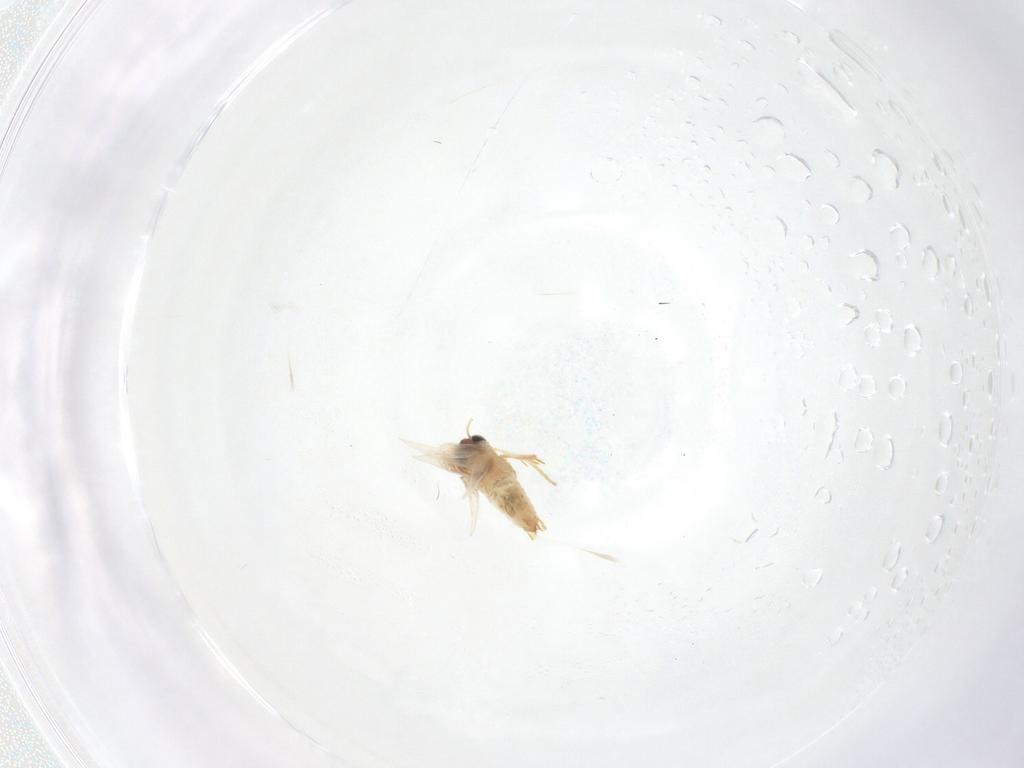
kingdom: Animalia
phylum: Arthropoda
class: Insecta
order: Lepidoptera
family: Crambidae
